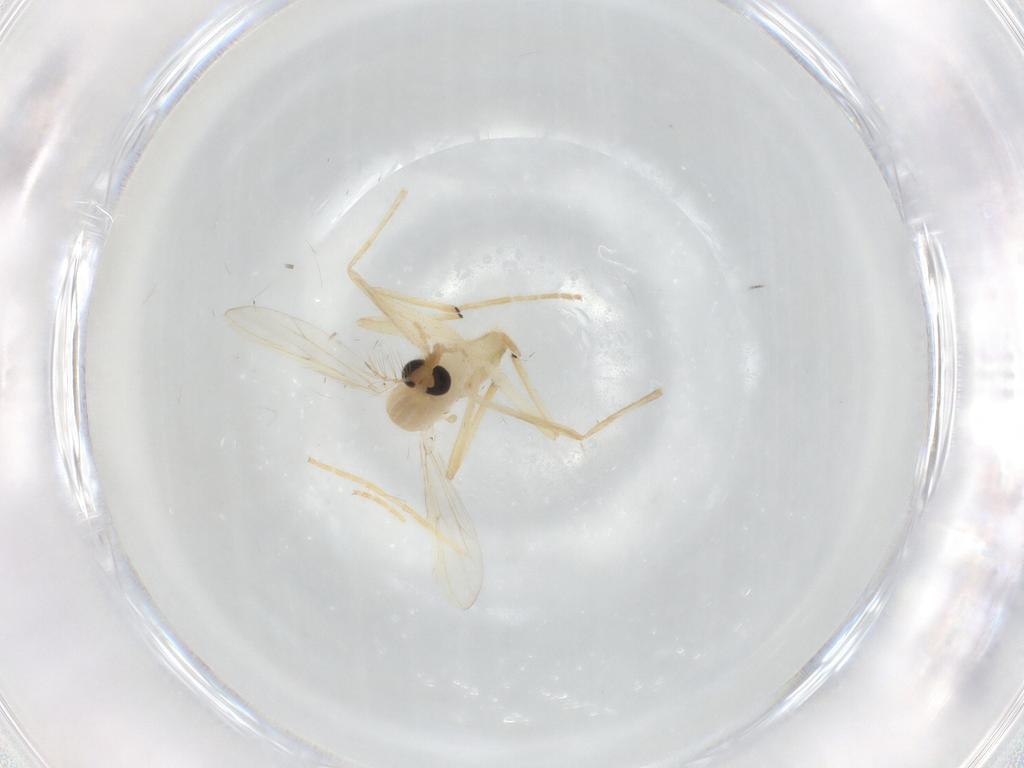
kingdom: Animalia
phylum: Arthropoda
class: Insecta
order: Diptera
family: Chironomidae
